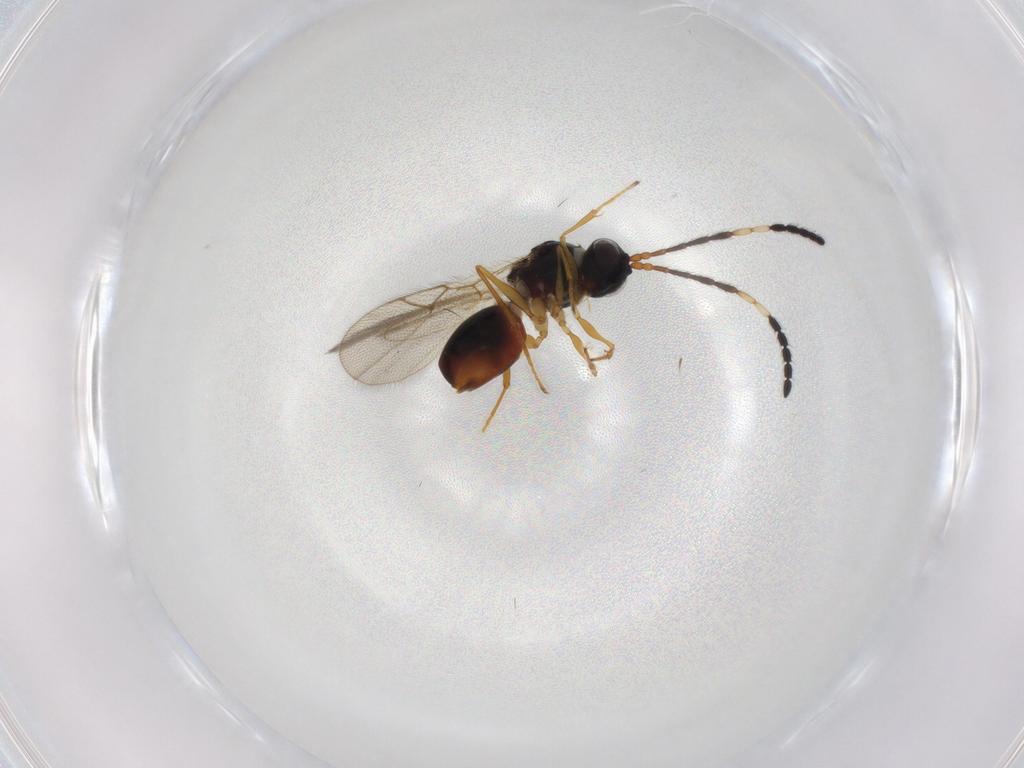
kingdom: Animalia
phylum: Arthropoda
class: Insecta
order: Hymenoptera
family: Figitidae
